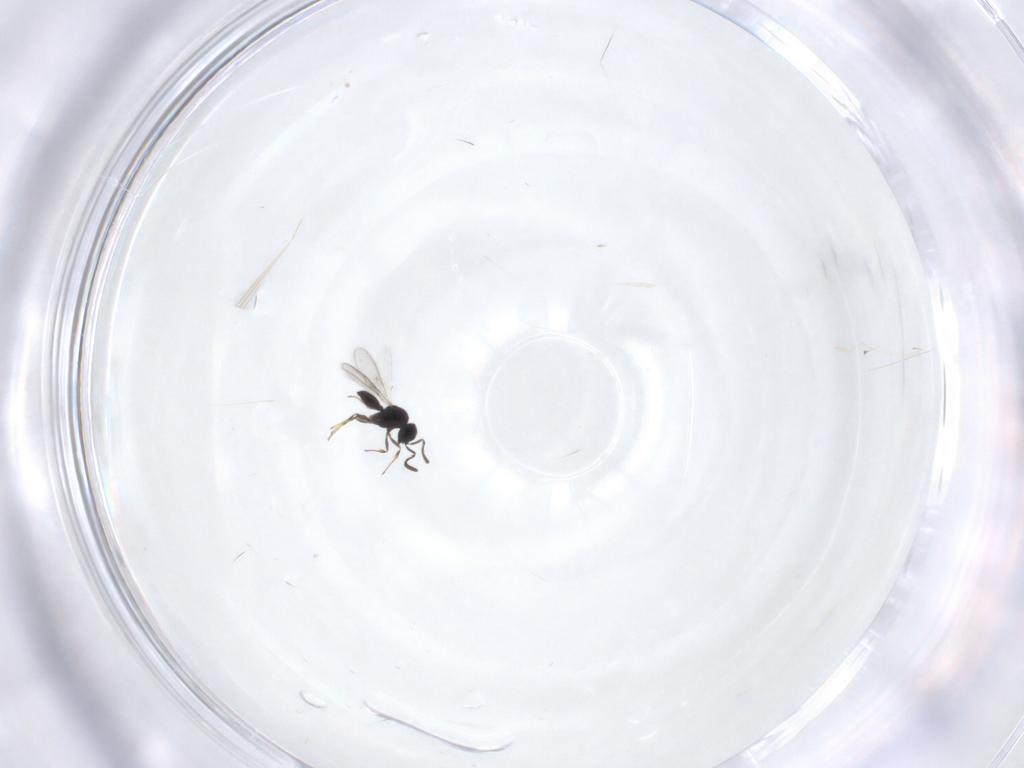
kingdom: Animalia
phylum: Arthropoda
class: Insecta
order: Hymenoptera
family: Scelionidae
